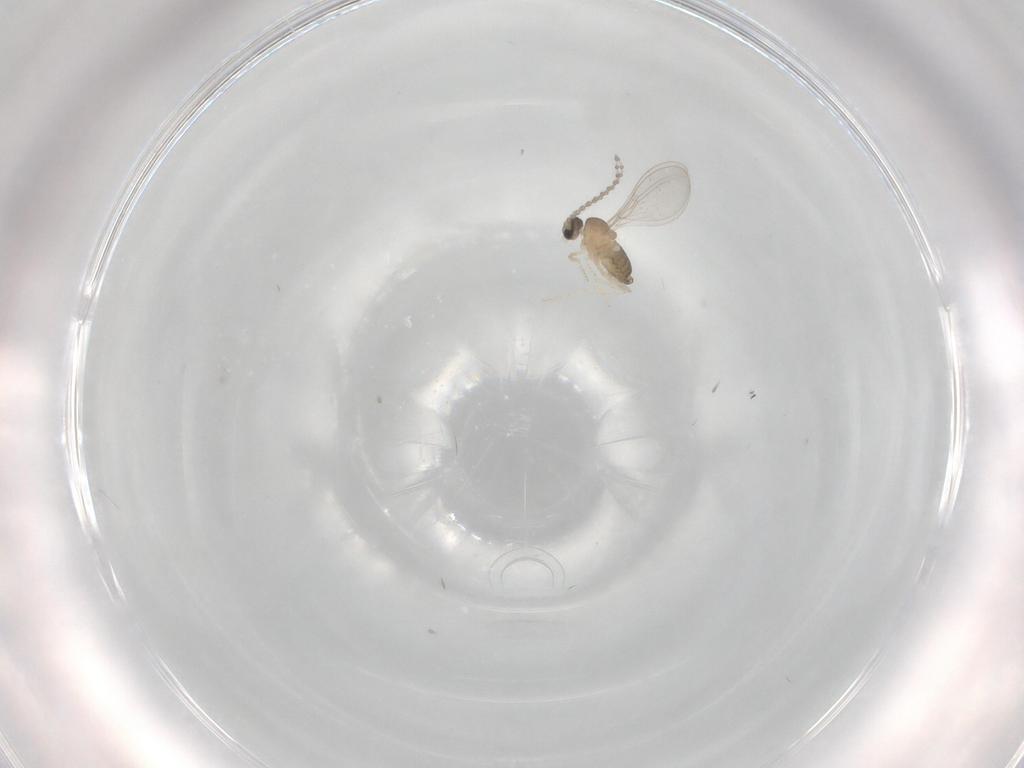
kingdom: Animalia
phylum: Arthropoda
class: Insecta
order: Diptera
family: Cecidomyiidae
